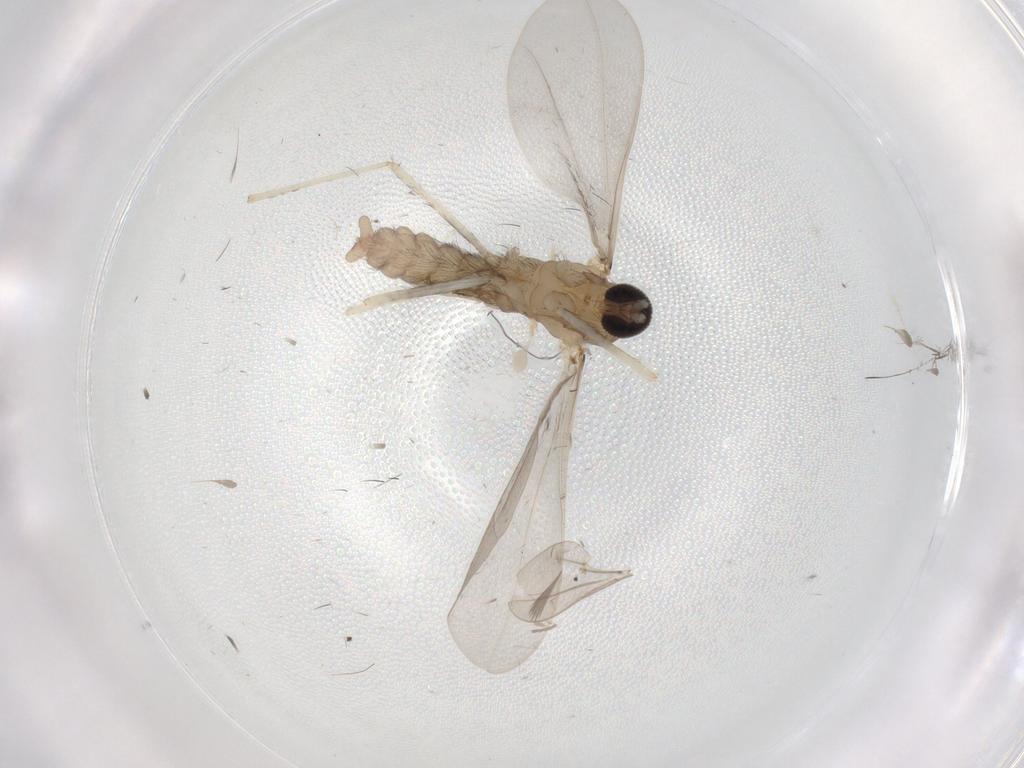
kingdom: Animalia
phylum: Arthropoda
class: Insecta
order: Diptera
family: Cecidomyiidae
